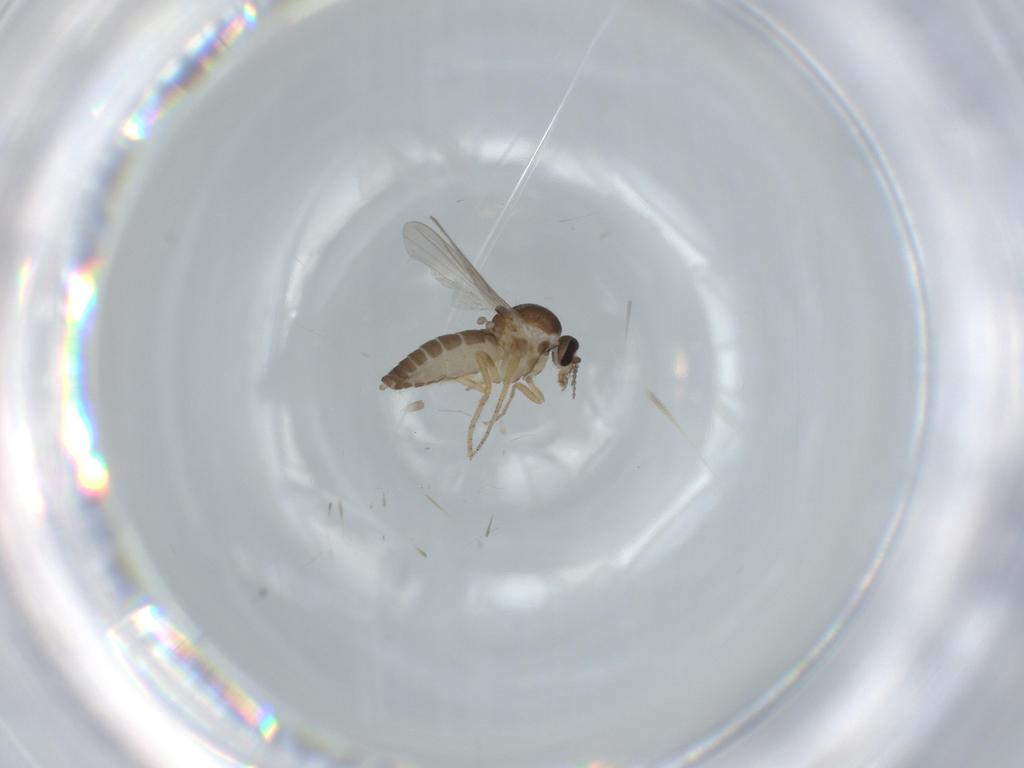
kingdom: Animalia
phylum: Arthropoda
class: Insecta
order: Diptera
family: Ceratopogonidae
